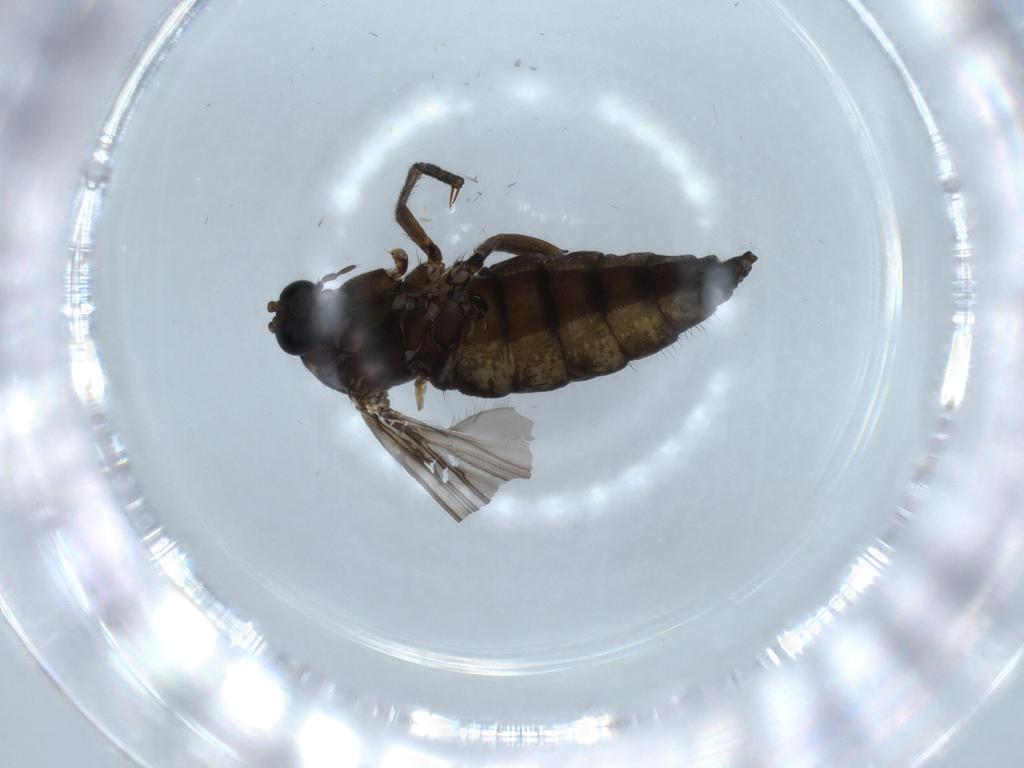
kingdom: Animalia
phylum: Arthropoda
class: Insecta
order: Diptera
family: Sciaridae
